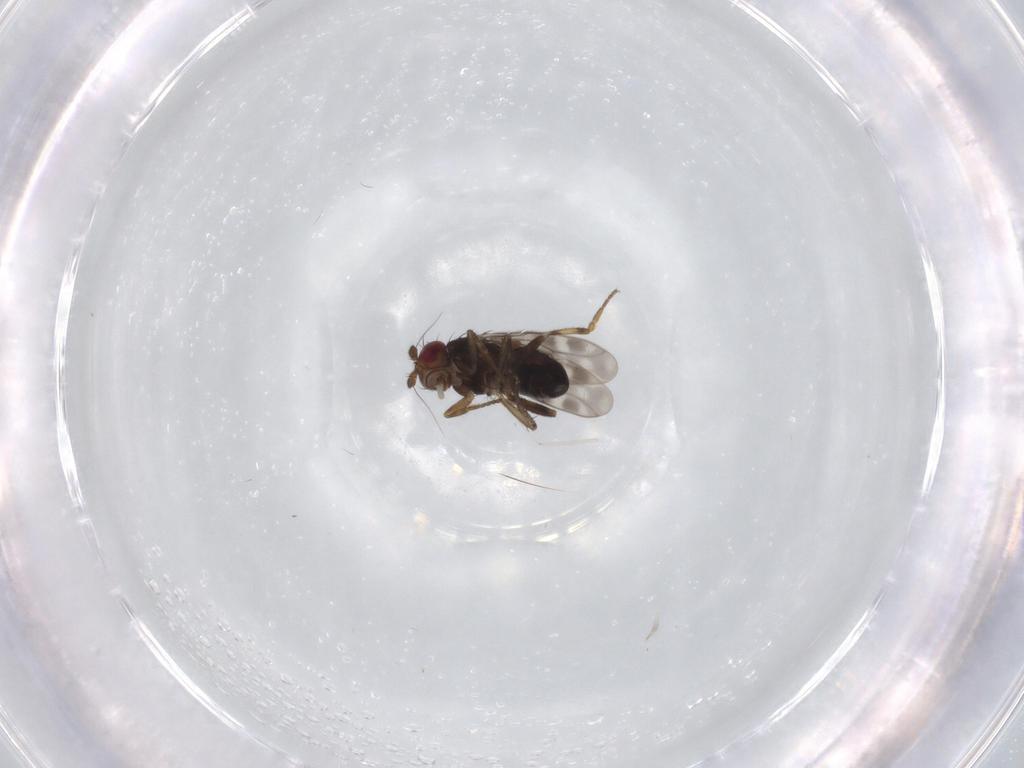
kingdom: Animalia
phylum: Arthropoda
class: Insecta
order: Diptera
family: Sphaeroceridae
